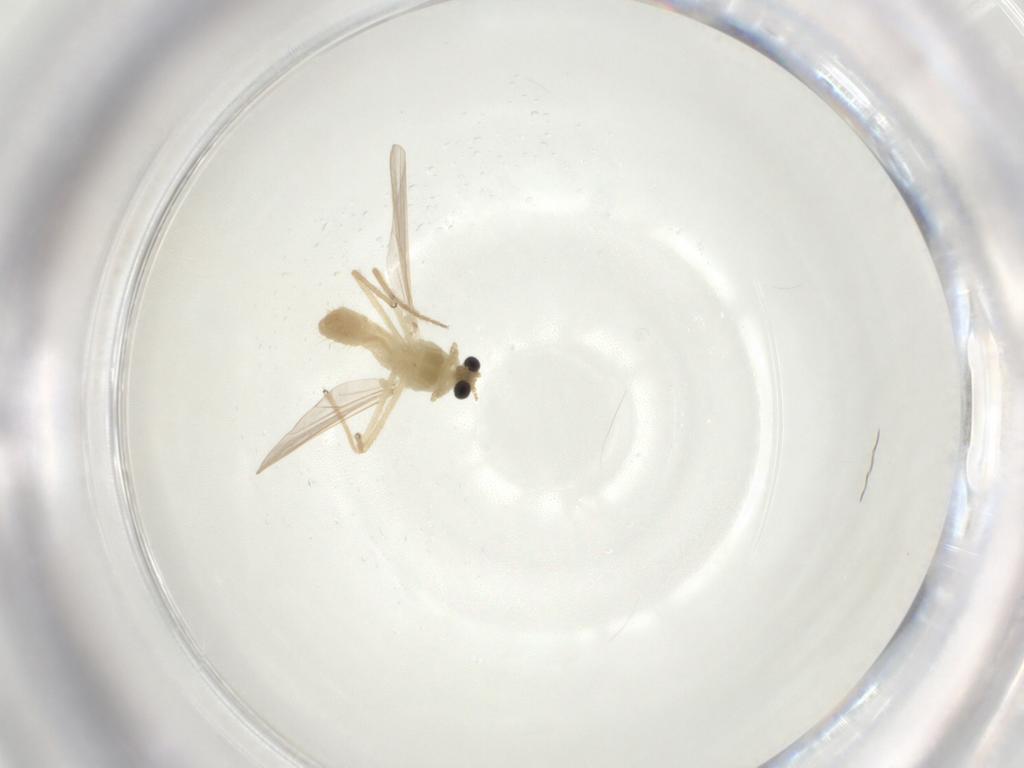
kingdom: Animalia
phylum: Arthropoda
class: Insecta
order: Diptera
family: Chironomidae
